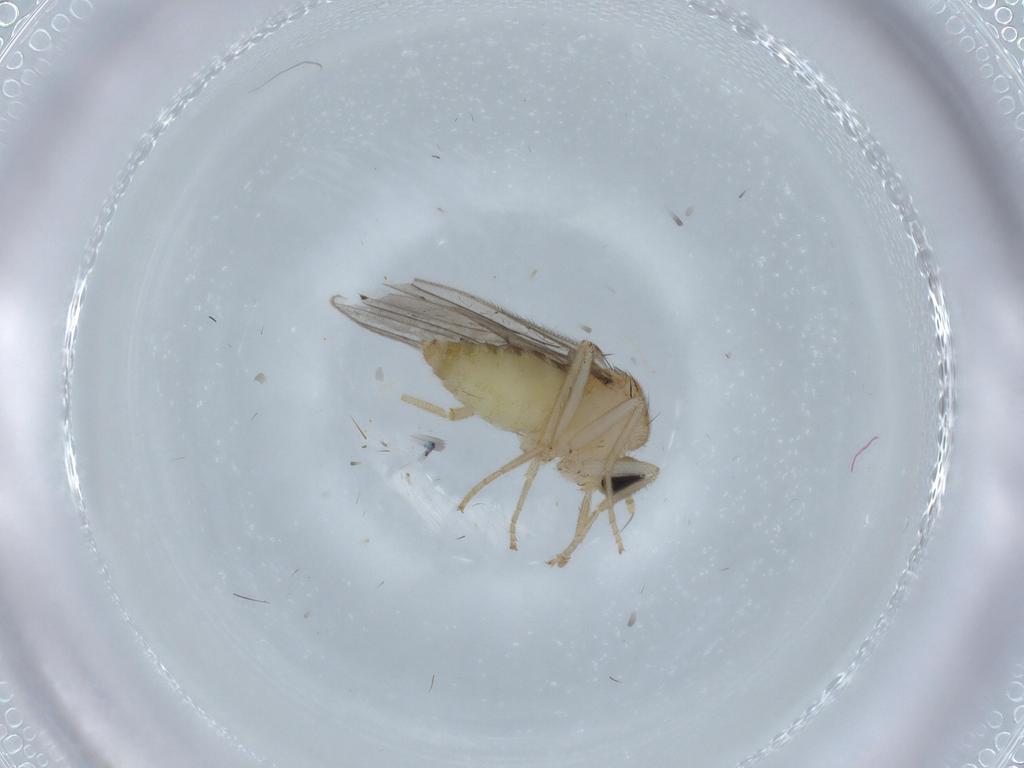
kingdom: Animalia
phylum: Arthropoda
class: Insecta
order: Diptera
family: Hybotidae
